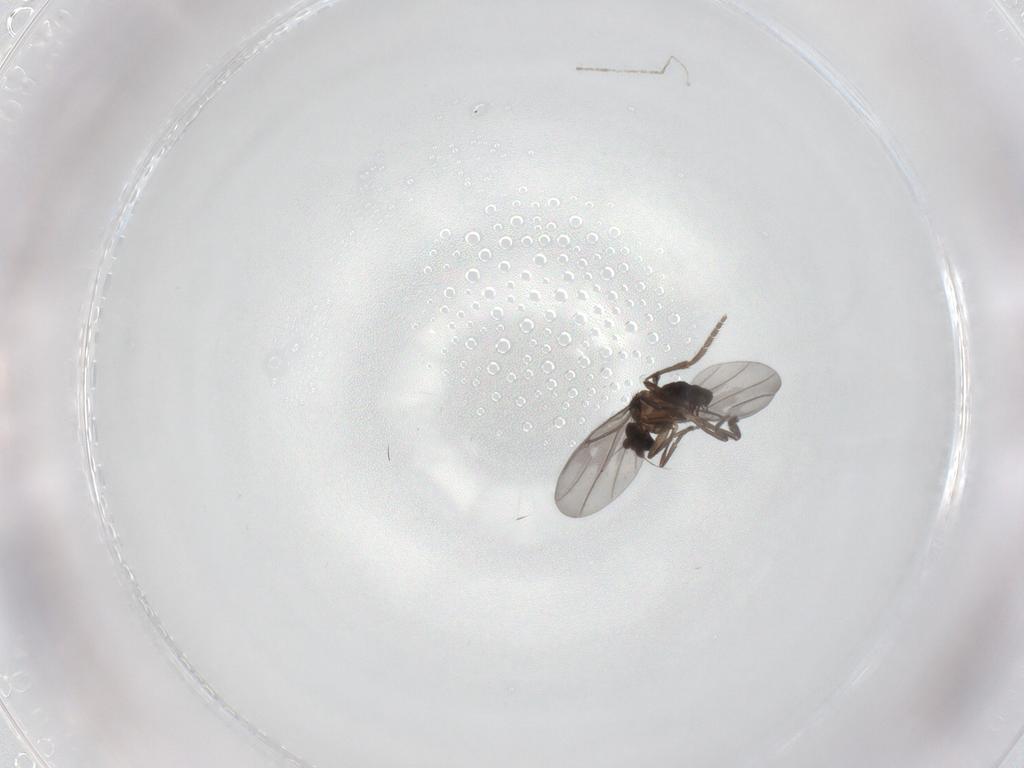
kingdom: Animalia
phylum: Arthropoda
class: Insecta
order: Diptera
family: Phoridae
